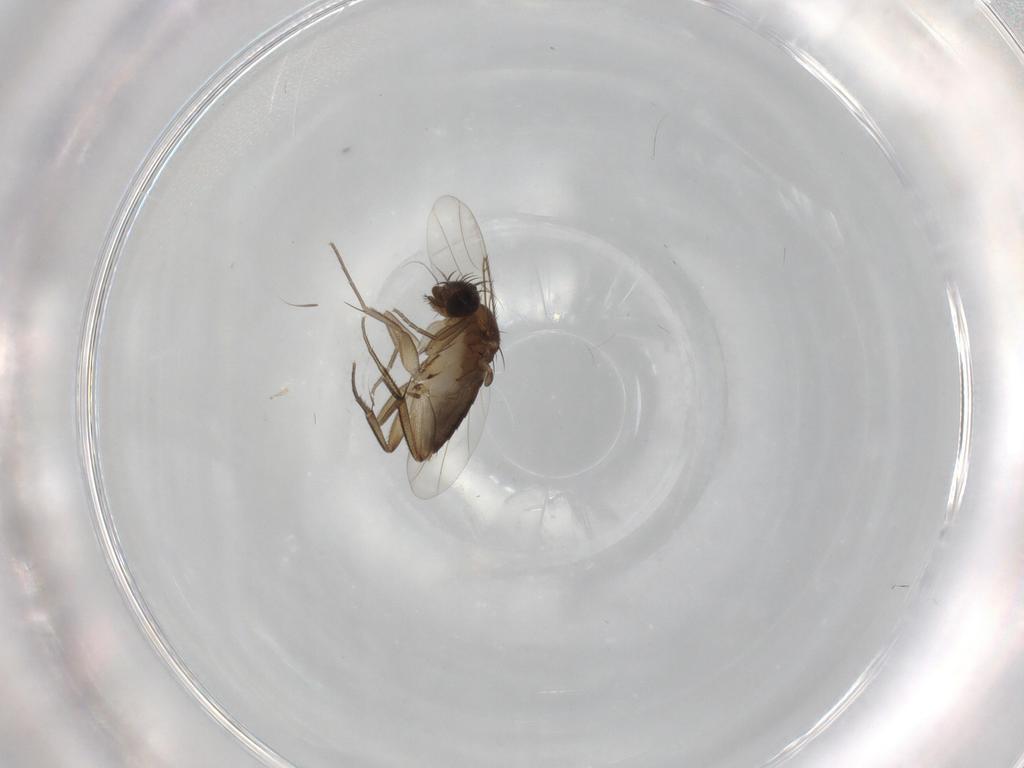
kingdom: Animalia
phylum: Arthropoda
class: Insecta
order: Diptera
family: Phoridae
